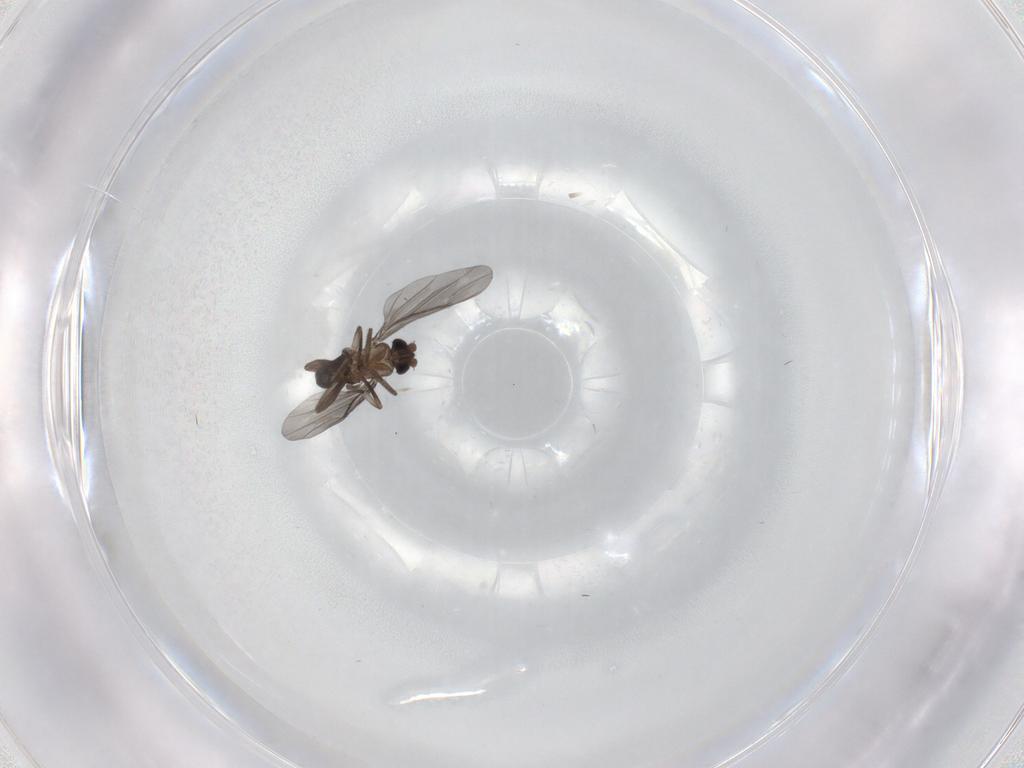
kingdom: Animalia
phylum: Arthropoda
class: Insecta
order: Diptera
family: Phoridae
